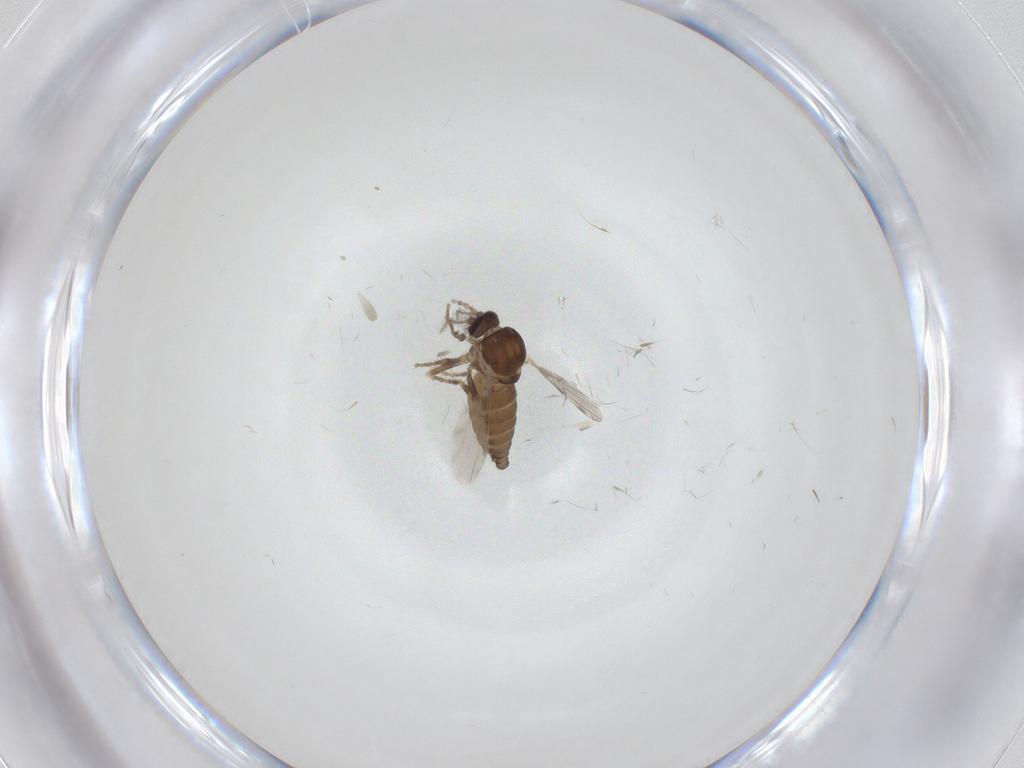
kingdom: Animalia
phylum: Arthropoda
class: Insecta
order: Diptera
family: Ceratopogonidae
